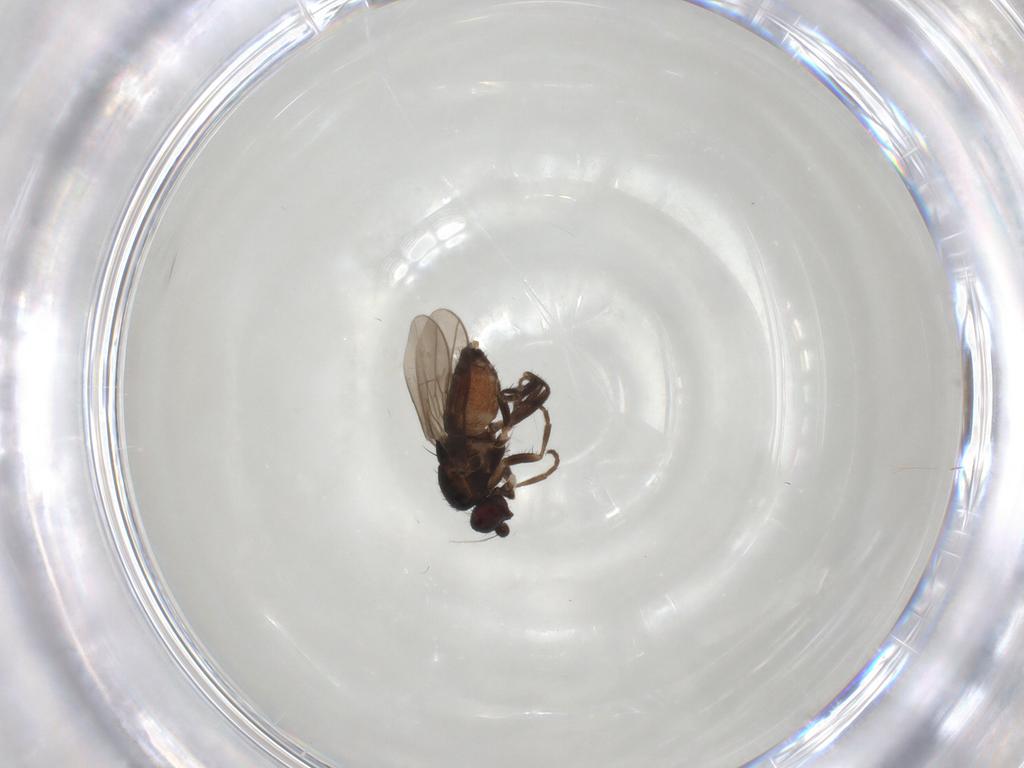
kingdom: Animalia
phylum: Arthropoda
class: Insecta
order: Diptera
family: Sphaeroceridae
